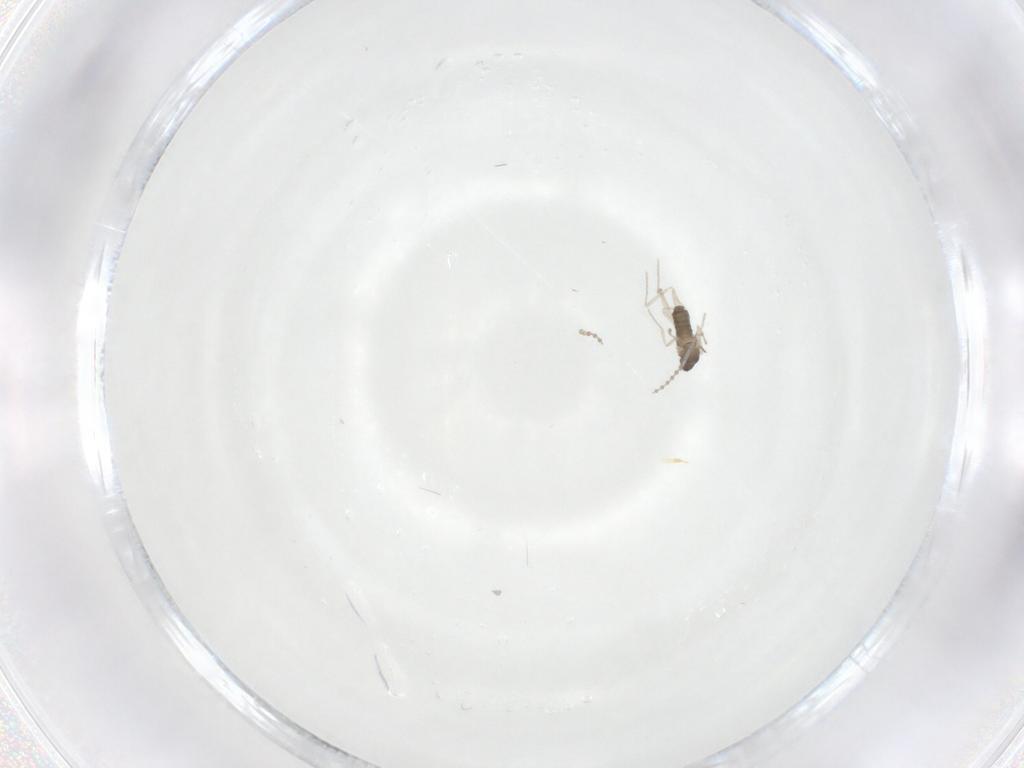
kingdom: Animalia
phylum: Arthropoda
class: Insecta
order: Diptera
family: Cecidomyiidae
